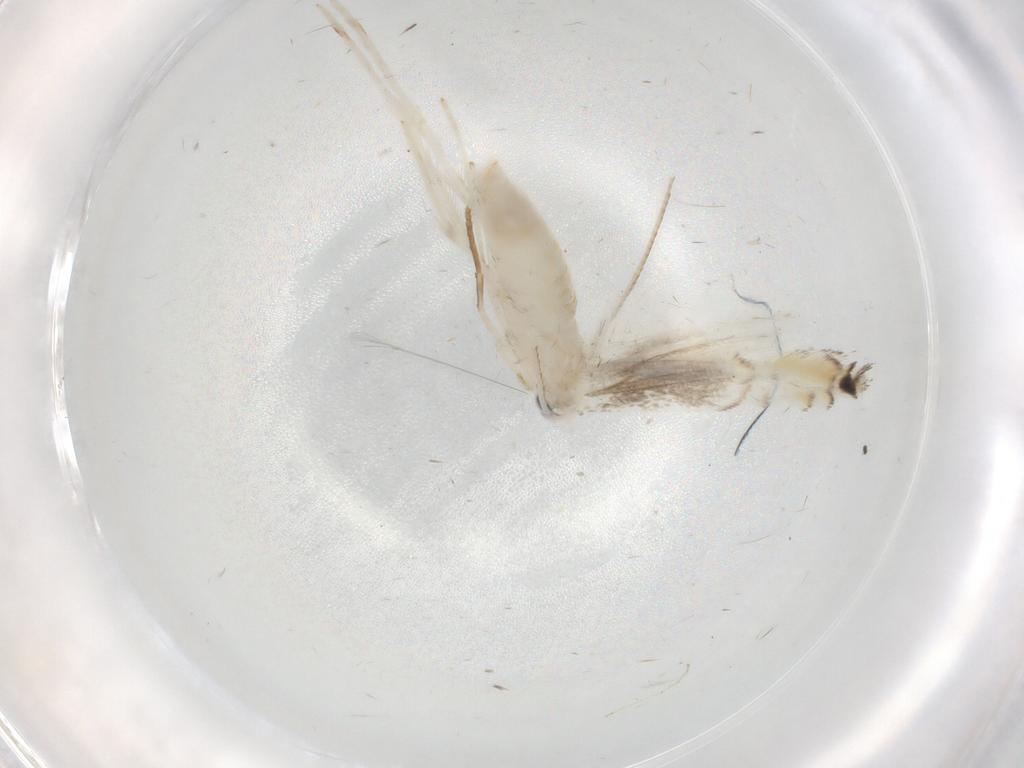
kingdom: Animalia
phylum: Arthropoda
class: Insecta
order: Lepidoptera
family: Gracillariidae
